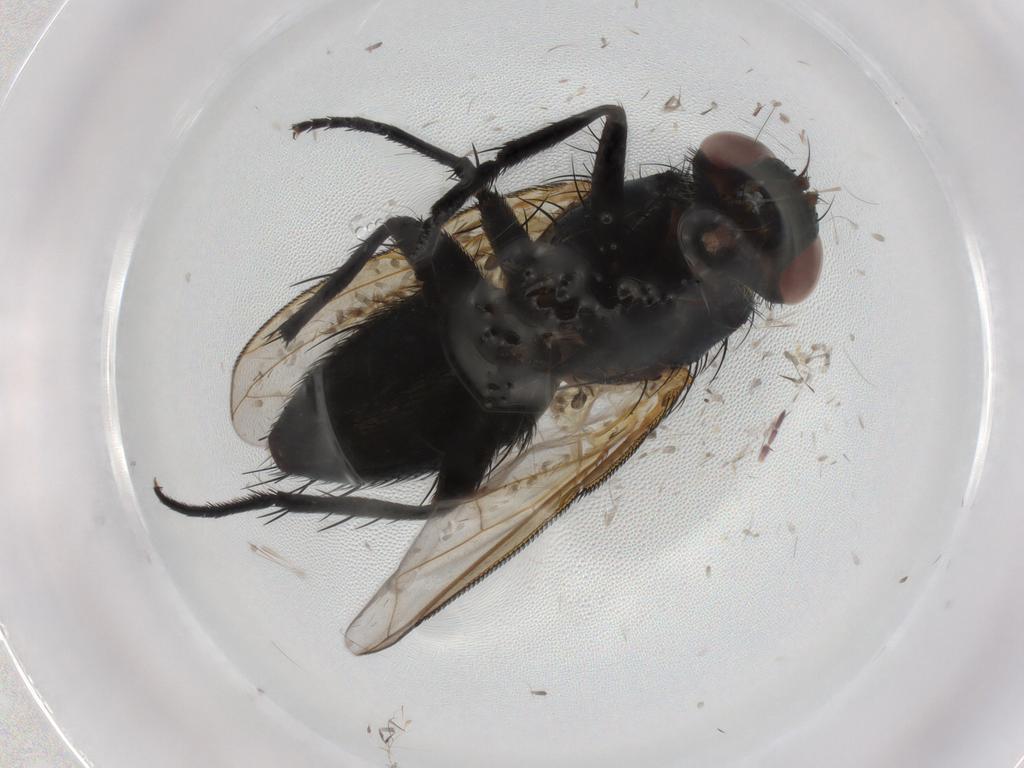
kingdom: Animalia
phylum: Arthropoda
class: Insecta
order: Diptera
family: Tachinidae
